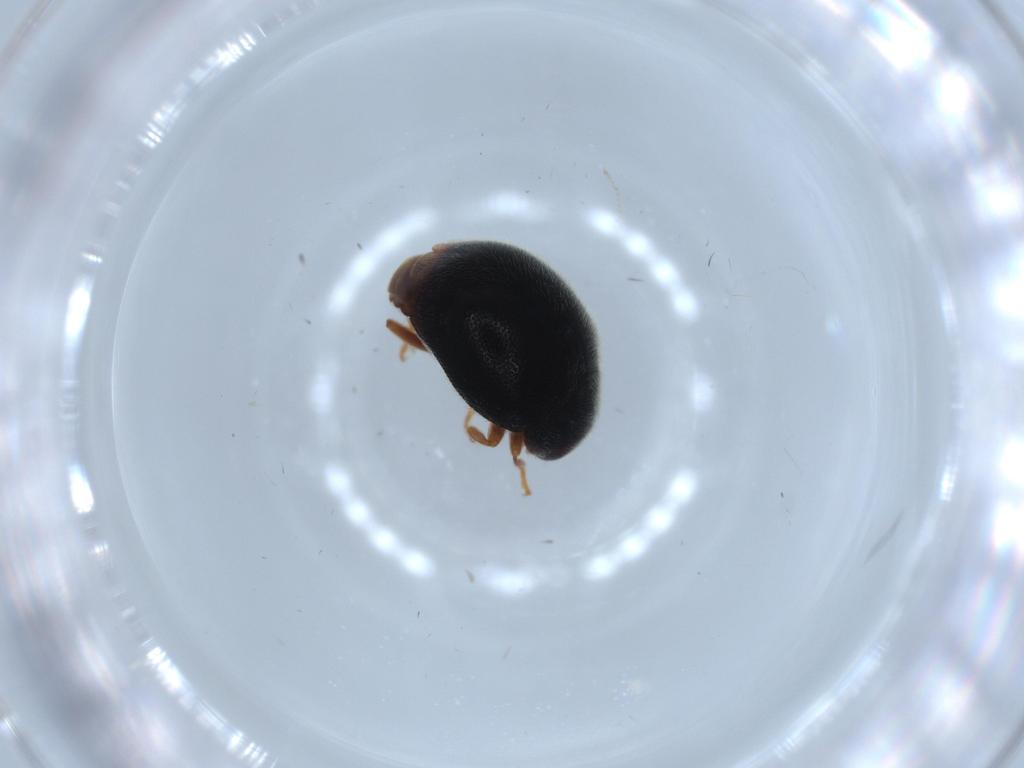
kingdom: Animalia
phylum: Arthropoda
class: Insecta
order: Coleoptera
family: Coccinellidae
